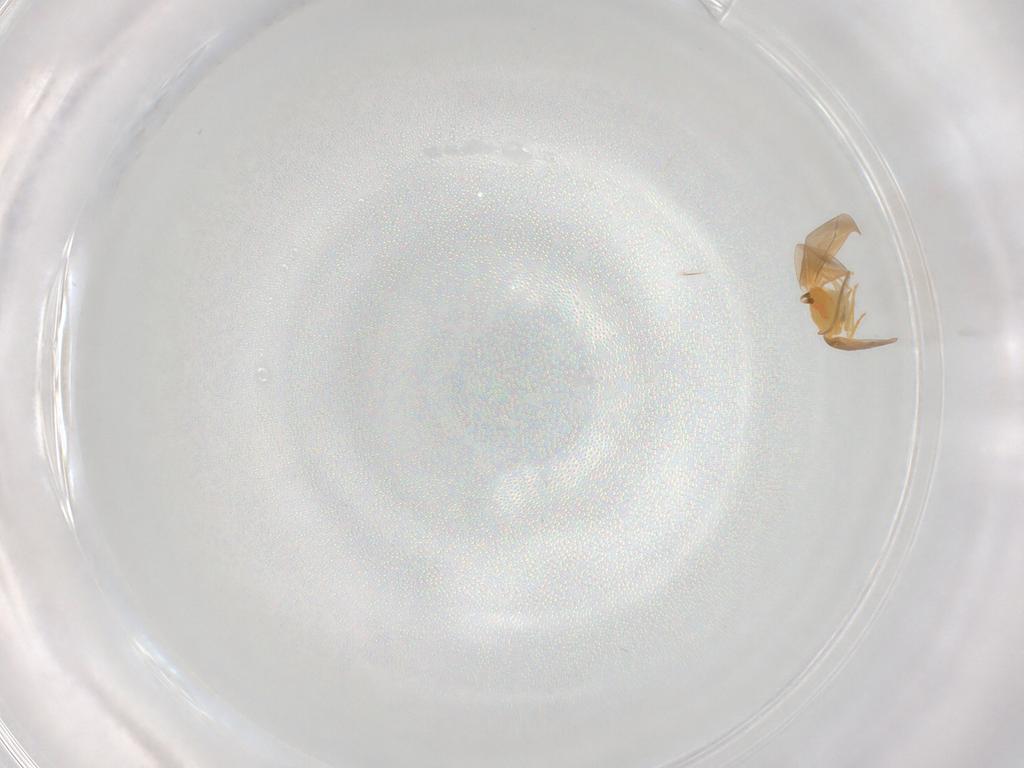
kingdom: Animalia
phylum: Arthropoda
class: Insecta
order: Hemiptera
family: Aleyrodidae
